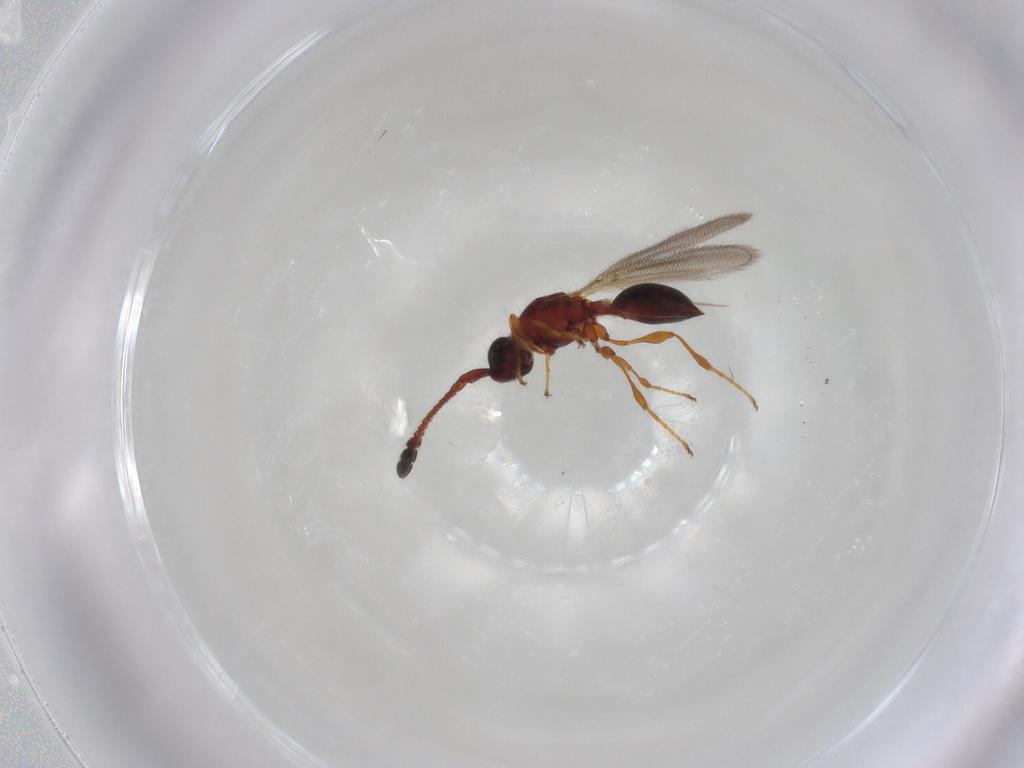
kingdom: Animalia
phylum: Arthropoda
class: Insecta
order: Hymenoptera
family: Diapriidae
